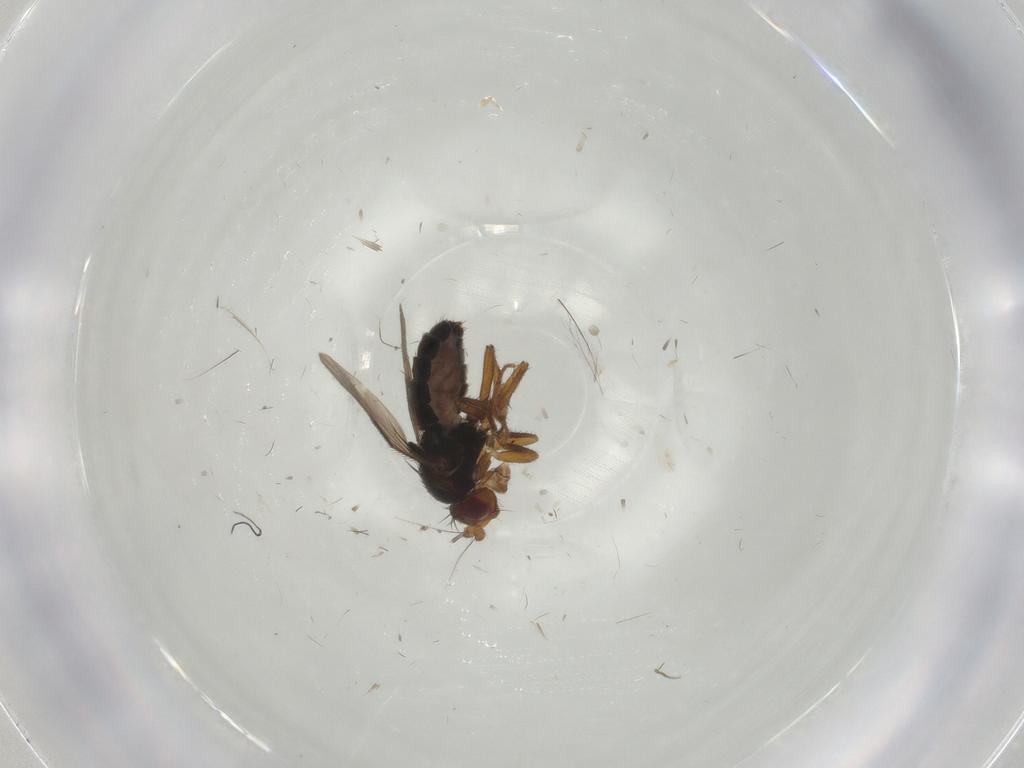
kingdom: Animalia
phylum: Arthropoda
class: Insecta
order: Diptera
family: Sphaeroceridae
